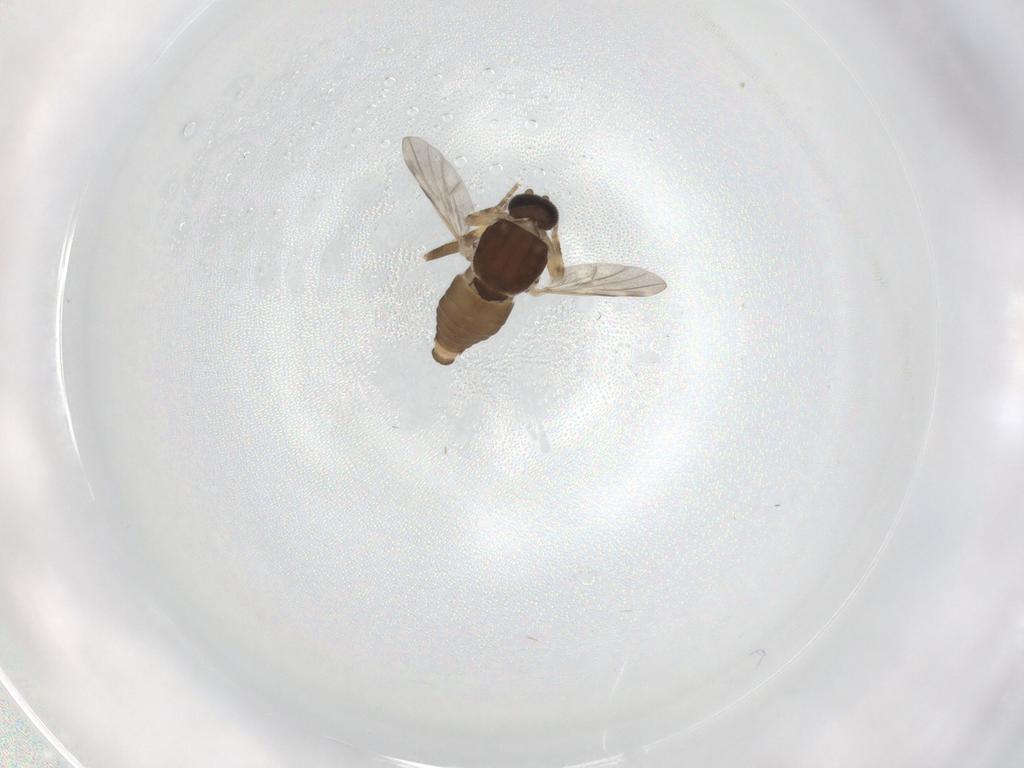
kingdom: Animalia
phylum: Arthropoda
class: Insecta
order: Diptera
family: Ceratopogonidae
